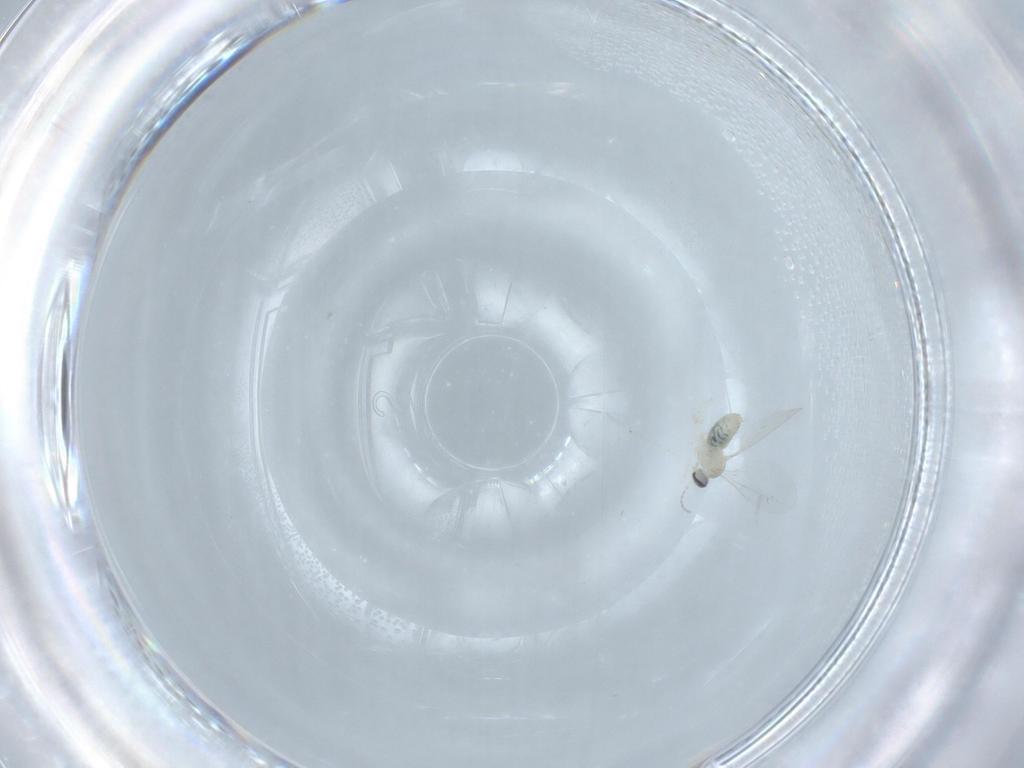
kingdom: Animalia
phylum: Arthropoda
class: Insecta
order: Diptera
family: Cecidomyiidae
